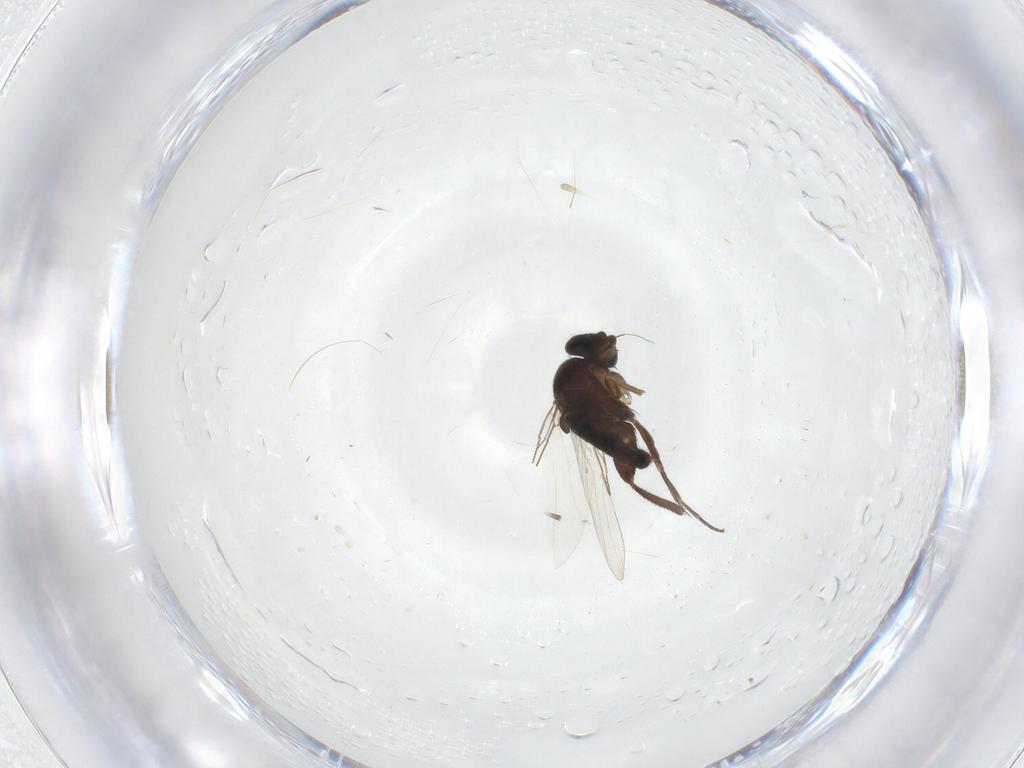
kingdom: Animalia
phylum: Arthropoda
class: Insecta
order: Diptera
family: Phoridae
